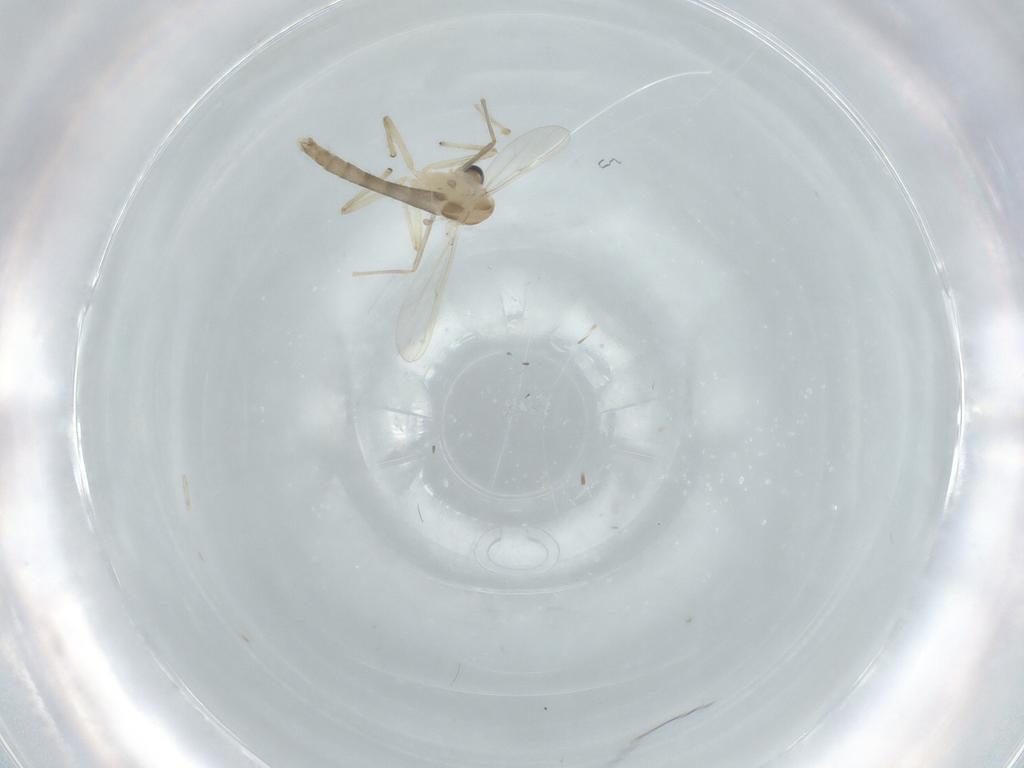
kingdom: Animalia
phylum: Arthropoda
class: Insecta
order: Diptera
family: Chironomidae
